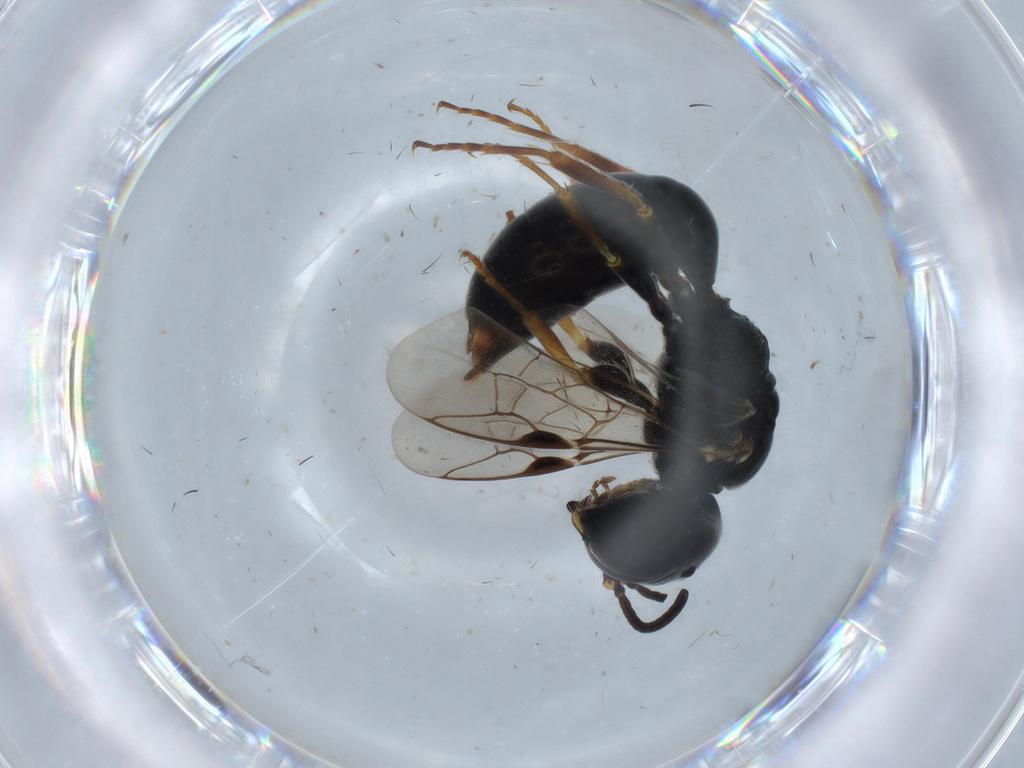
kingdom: Animalia
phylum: Arthropoda
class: Insecta
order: Hymenoptera
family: Crabronidae
